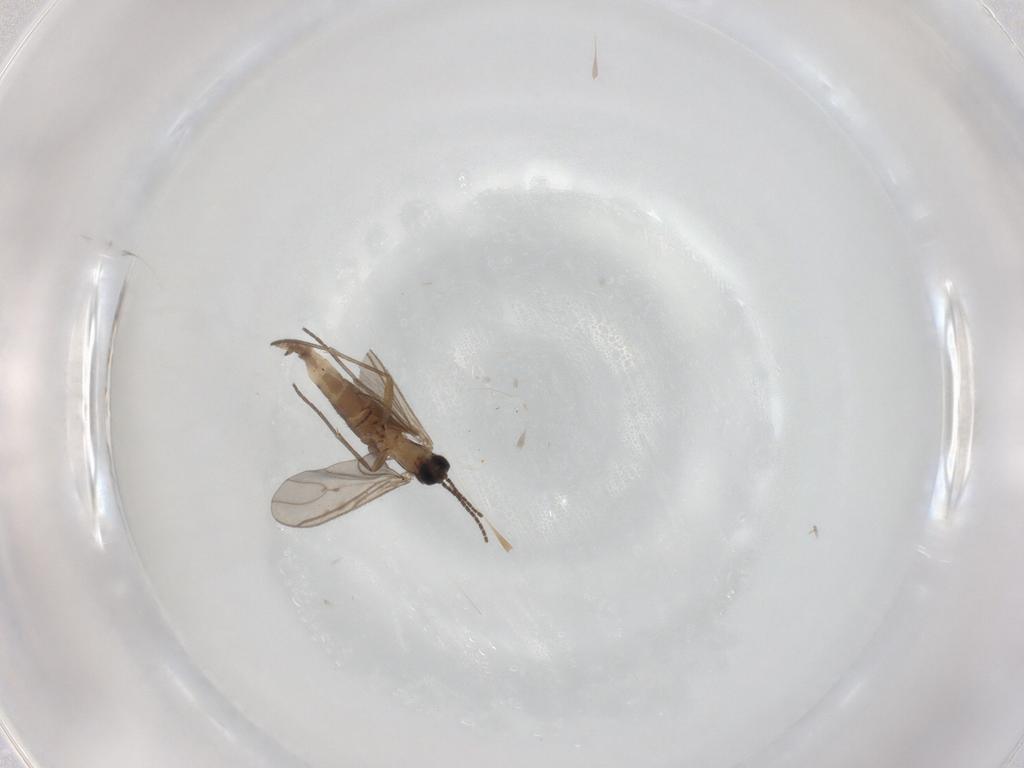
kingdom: Animalia
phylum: Arthropoda
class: Insecta
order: Diptera
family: Sciaridae
